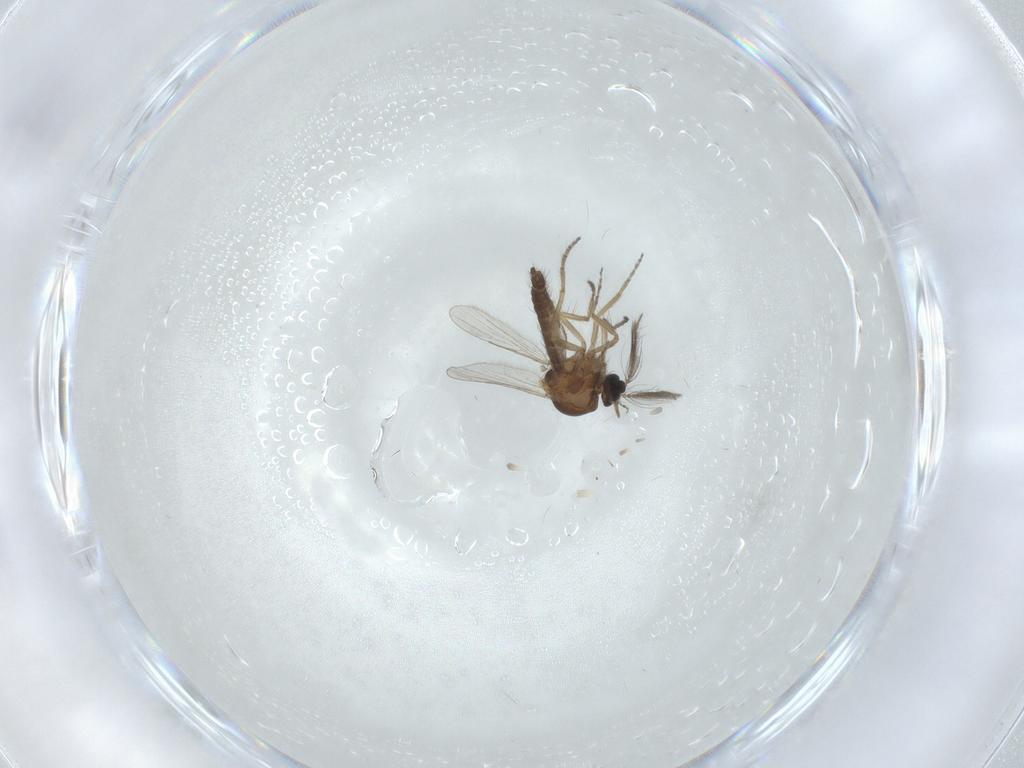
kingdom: Animalia
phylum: Arthropoda
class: Insecta
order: Diptera
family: Ceratopogonidae
